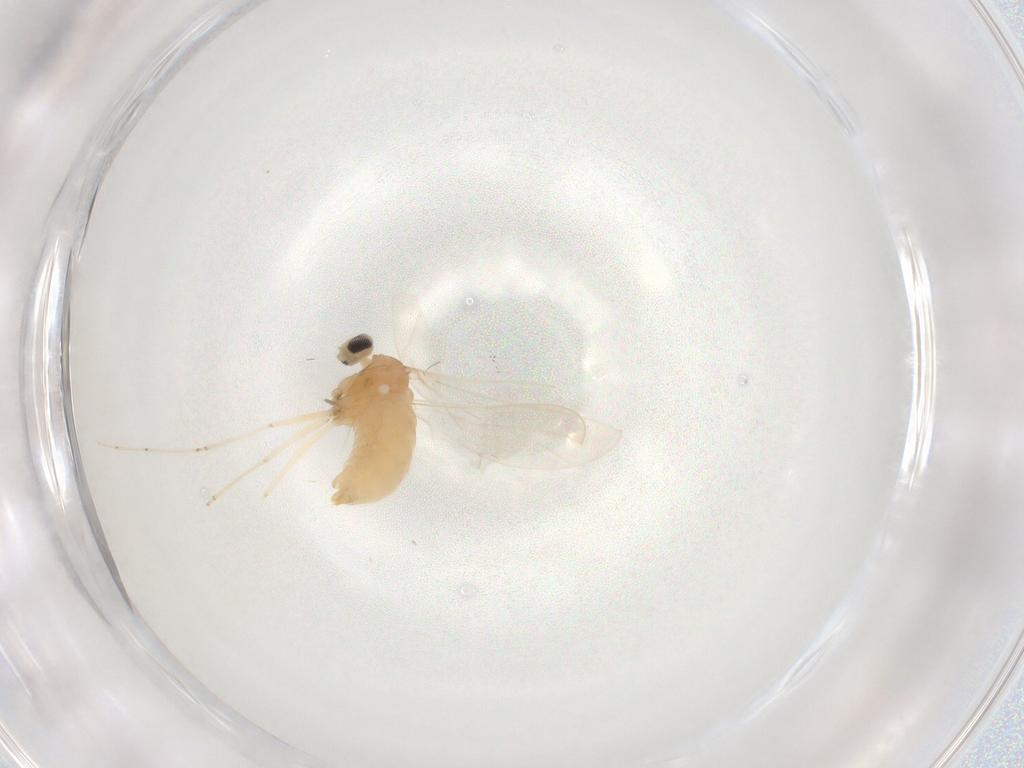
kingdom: Animalia
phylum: Arthropoda
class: Insecta
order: Diptera
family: Cecidomyiidae
